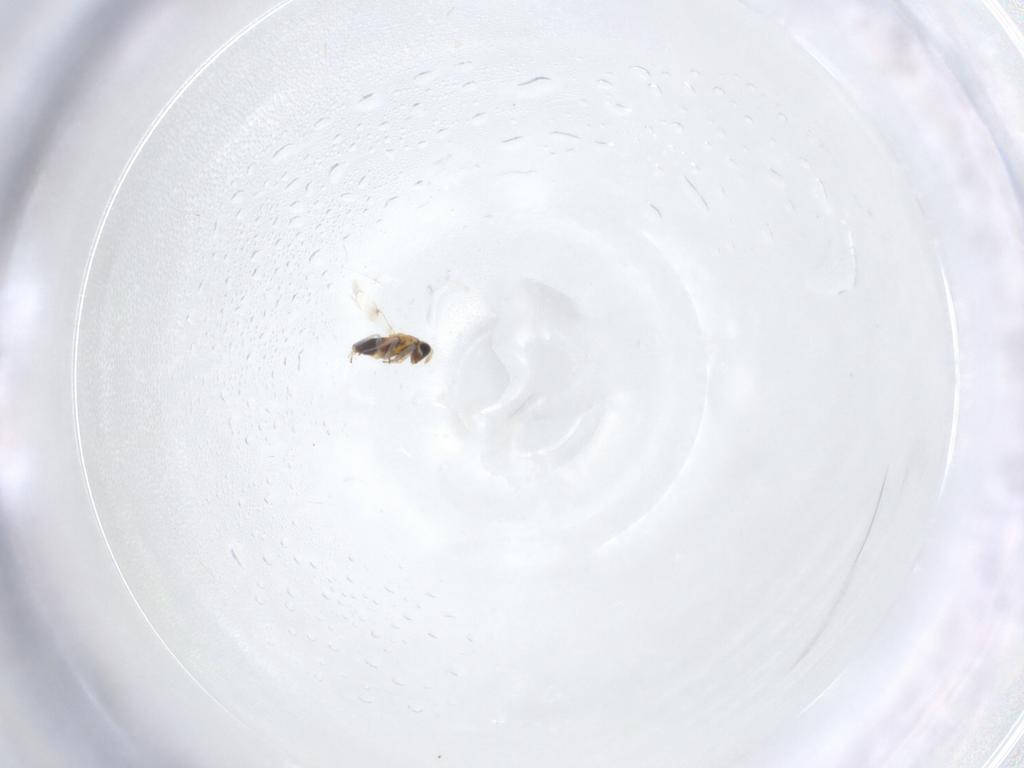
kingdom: Animalia
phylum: Arthropoda
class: Insecta
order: Hymenoptera
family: Trichogrammatidae
